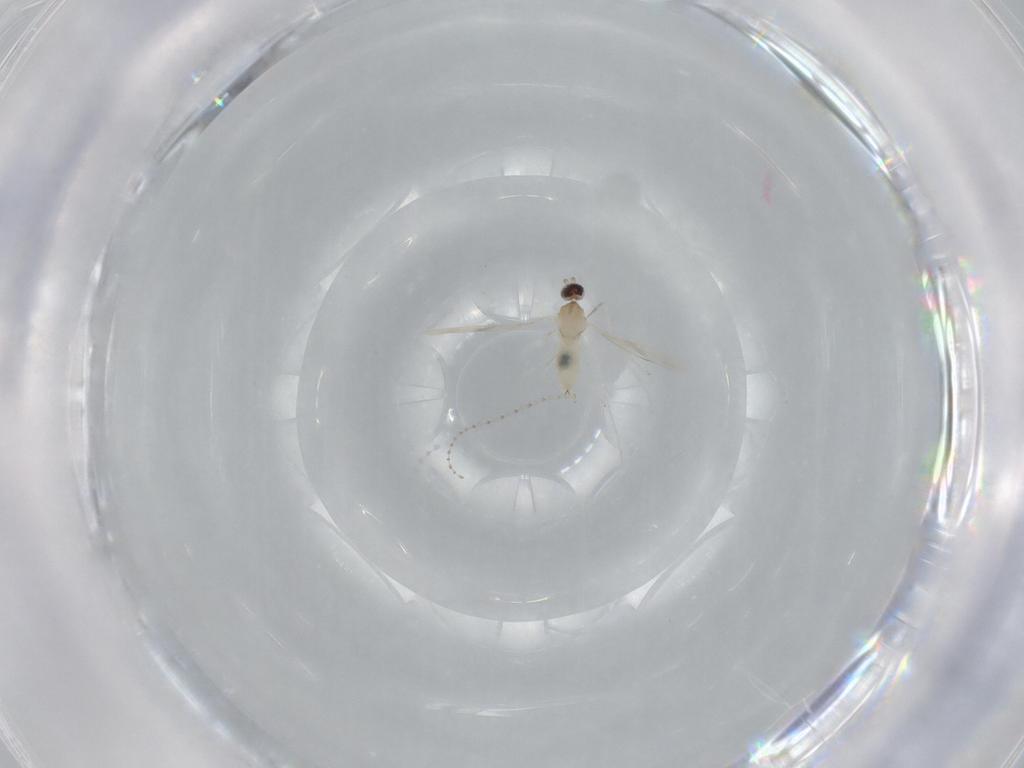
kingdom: Animalia
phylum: Arthropoda
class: Insecta
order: Diptera
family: Cecidomyiidae
